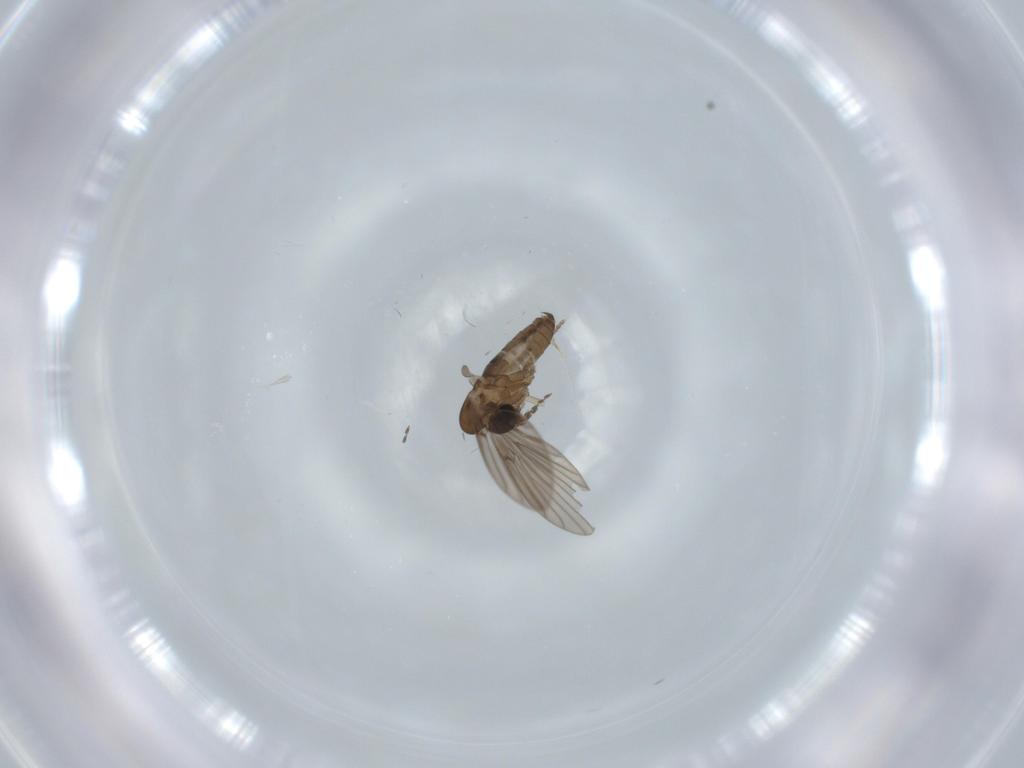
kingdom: Animalia
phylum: Arthropoda
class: Insecta
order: Diptera
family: Psychodidae
